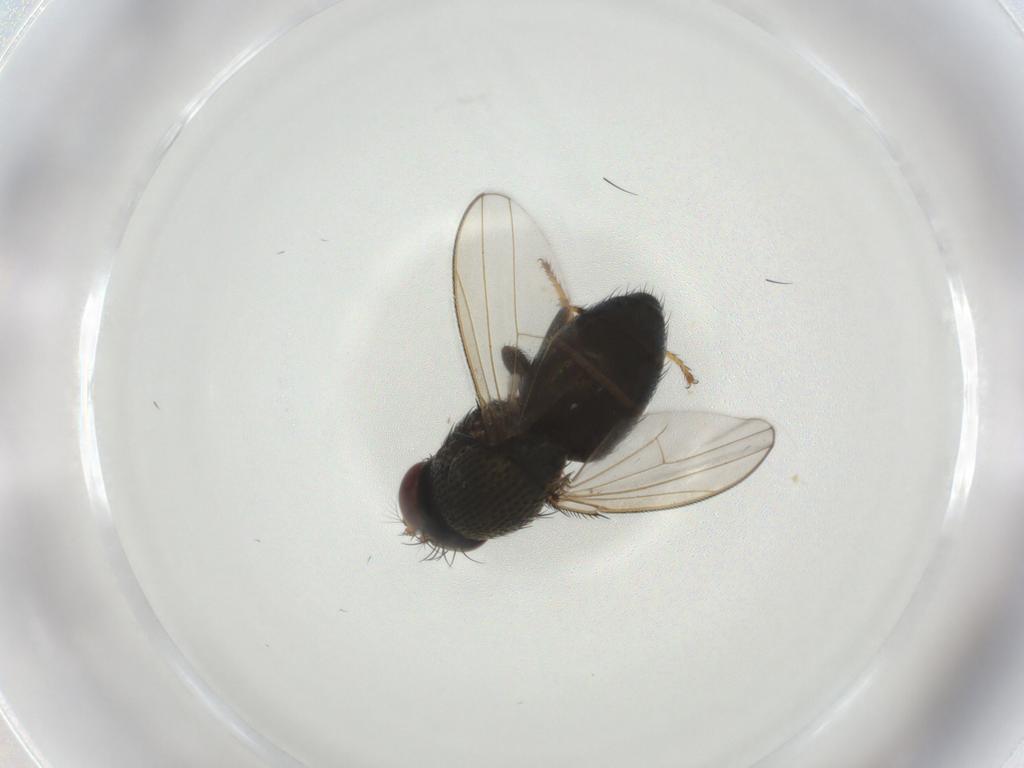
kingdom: Animalia
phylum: Arthropoda
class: Insecta
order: Diptera
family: Ephydridae
